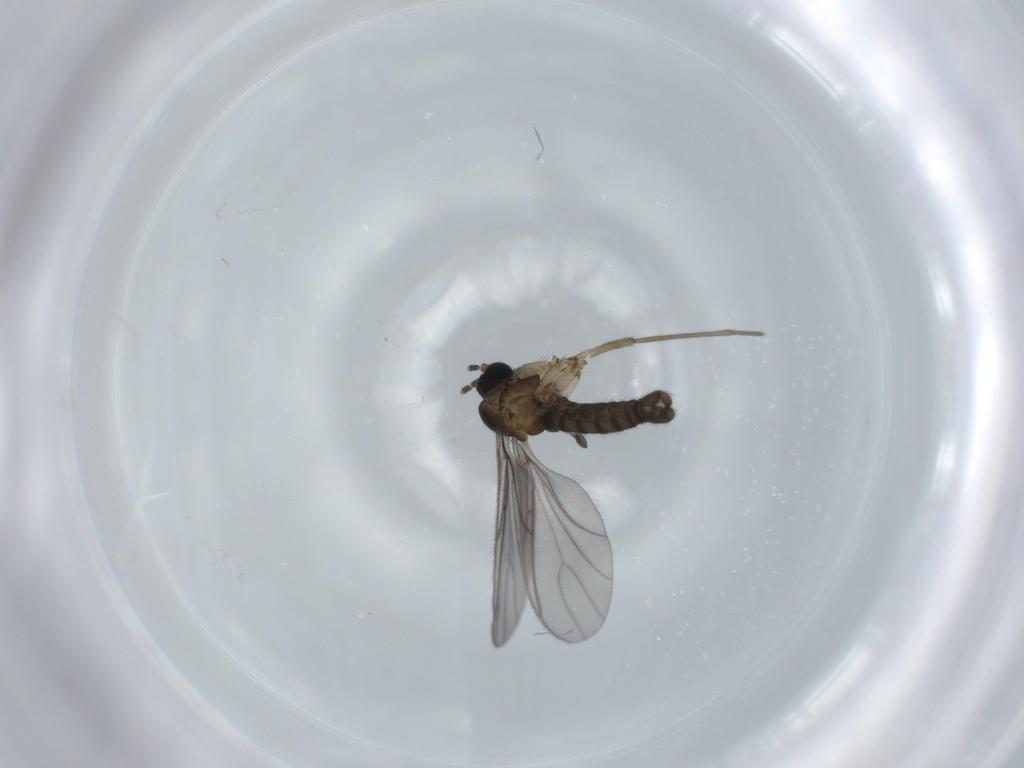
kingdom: Animalia
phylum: Arthropoda
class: Insecta
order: Diptera
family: Sciaridae
